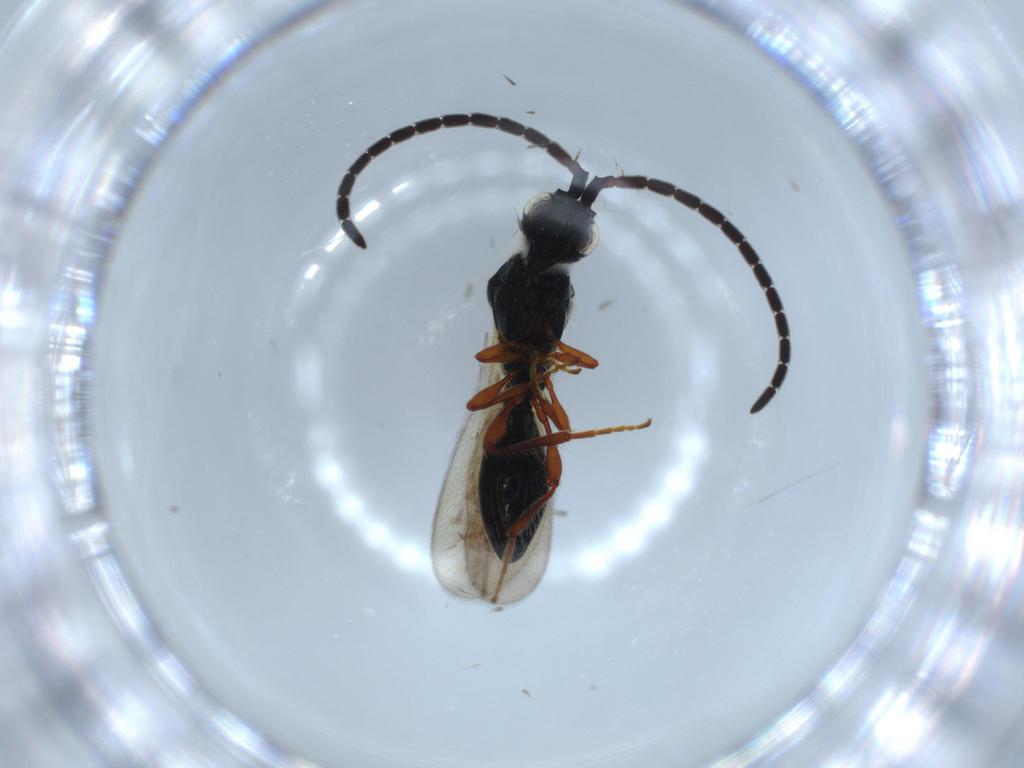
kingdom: Animalia
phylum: Arthropoda
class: Insecta
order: Hymenoptera
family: Diapriidae
